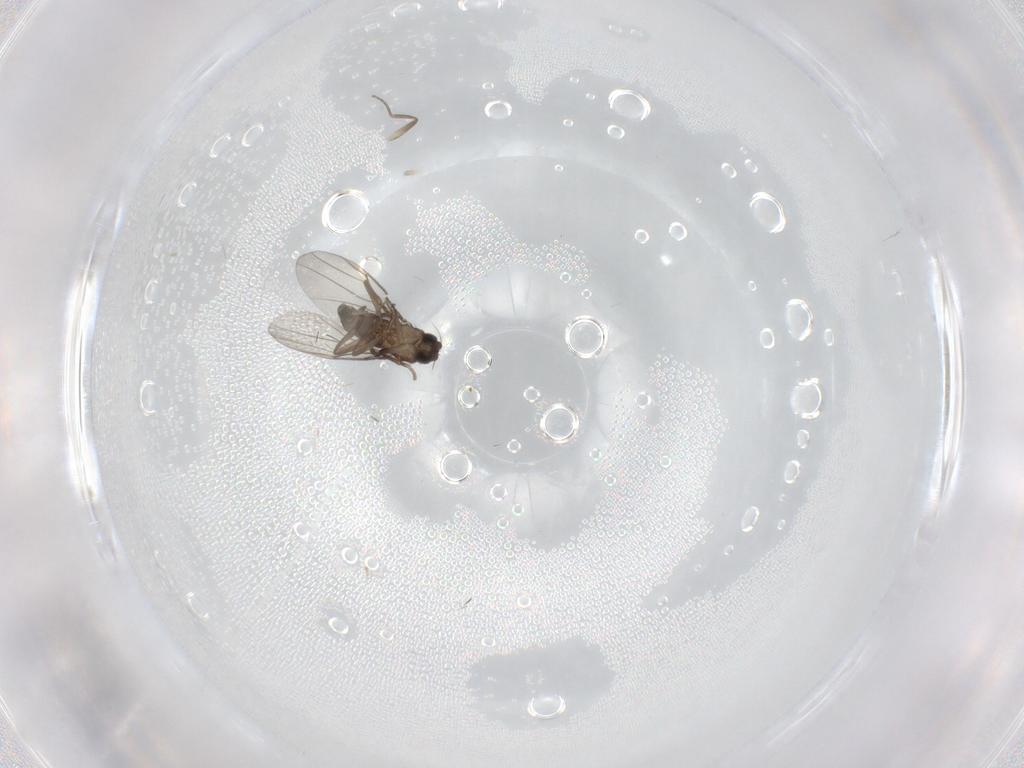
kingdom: Animalia
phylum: Arthropoda
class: Insecta
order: Diptera
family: Phoridae
